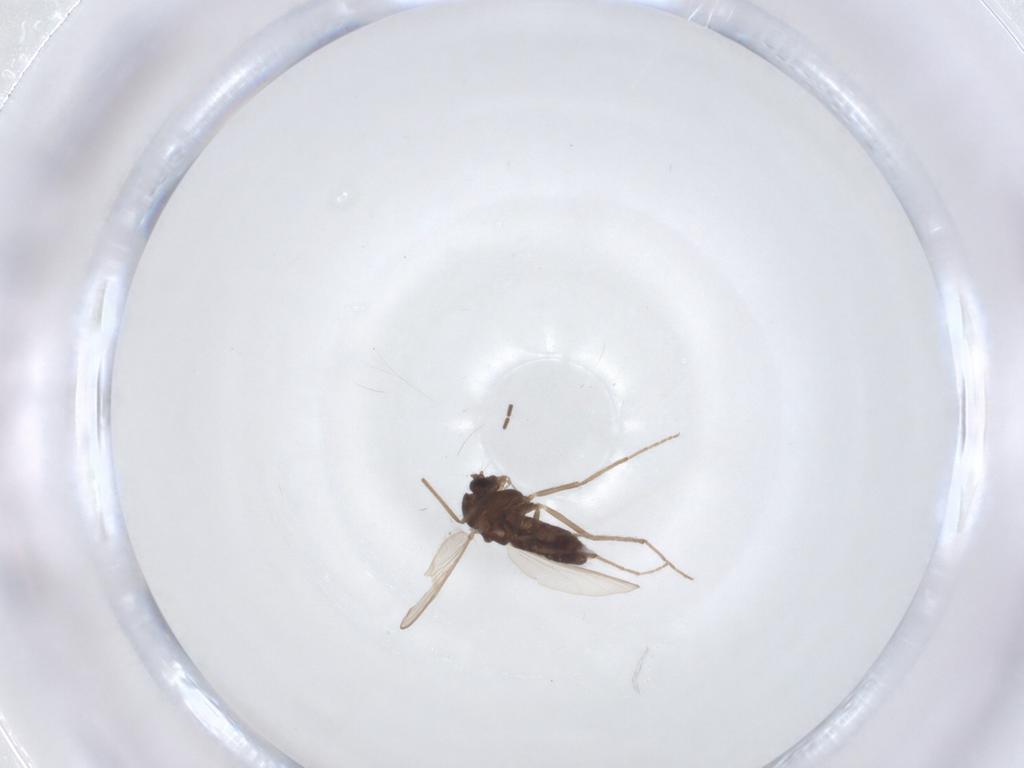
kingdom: Animalia
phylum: Arthropoda
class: Insecta
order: Diptera
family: Chironomidae
